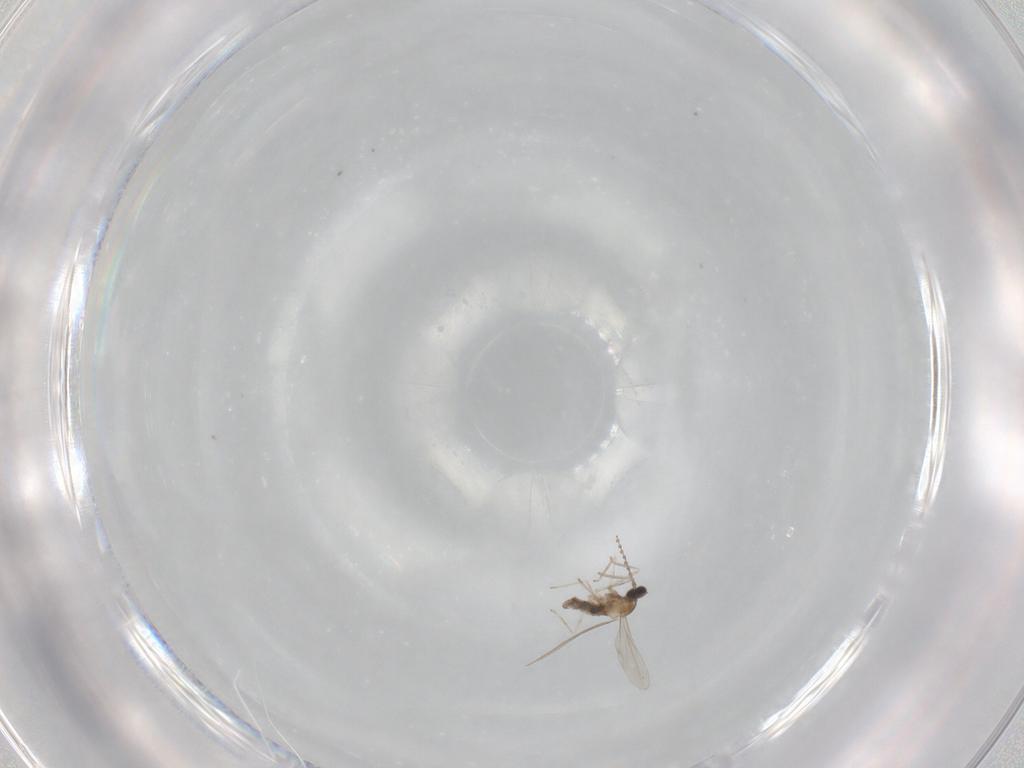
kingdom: Animalia
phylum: Arthropoda
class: Insecta
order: Diptera
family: Cecidomyiidae
